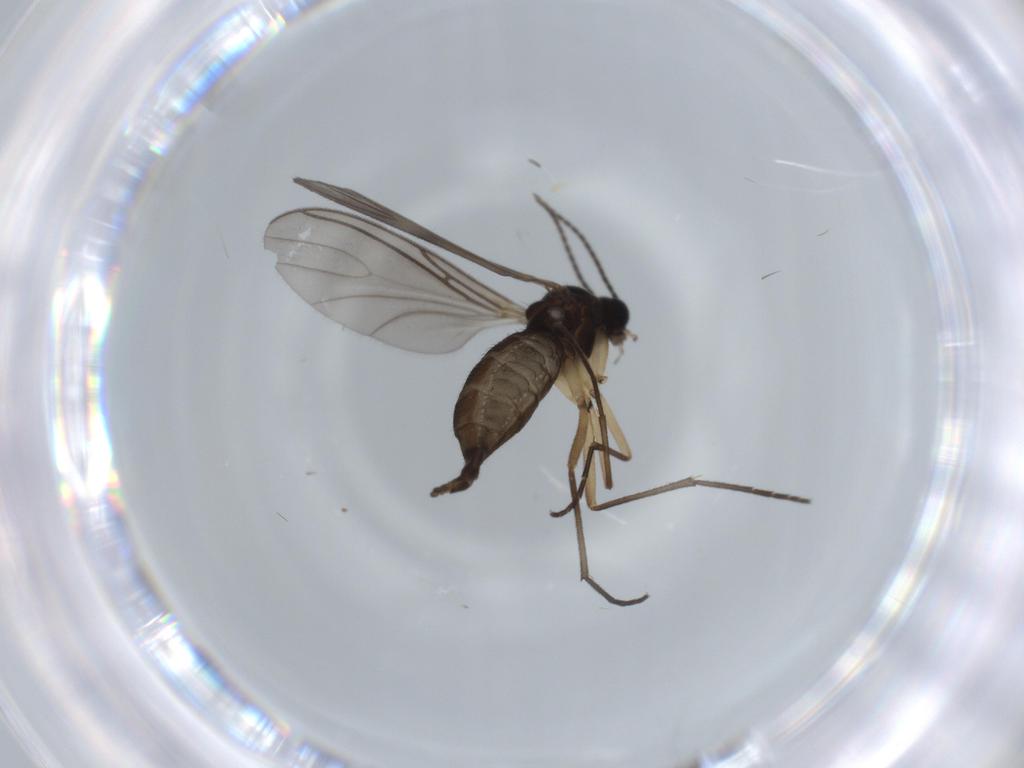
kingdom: Animalia
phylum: Arthropoda
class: Insecta
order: Diptera
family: Sciaridae
